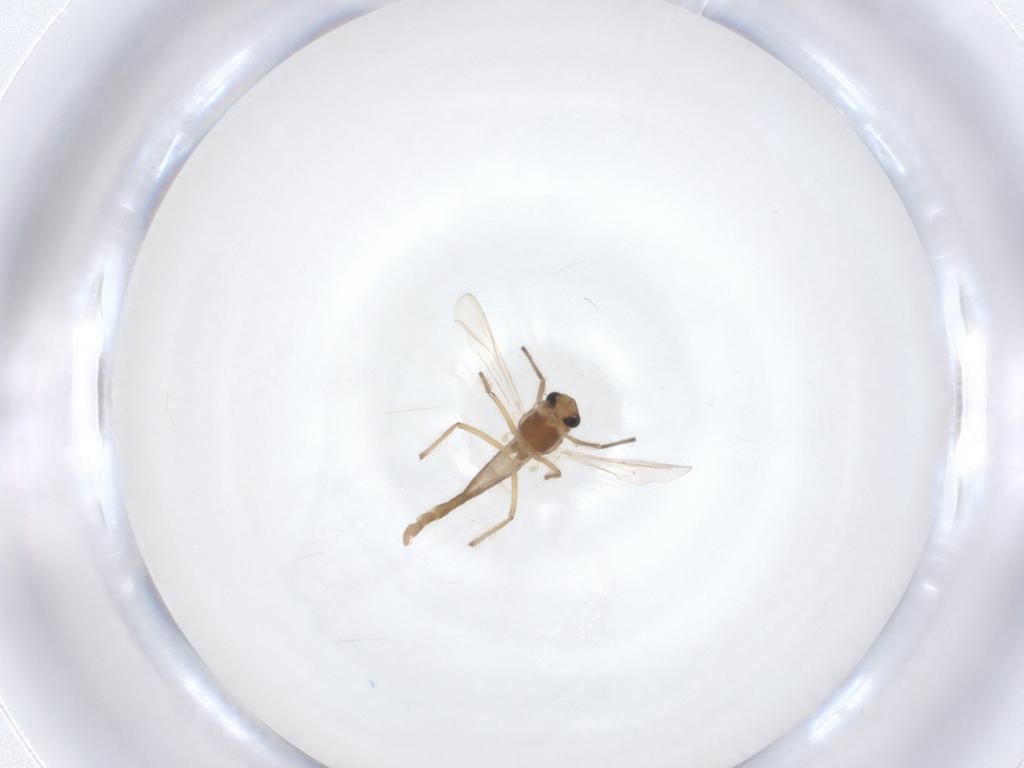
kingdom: Animalia
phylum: Arthropoda
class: Insecta
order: Diptera
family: Chironomidae
